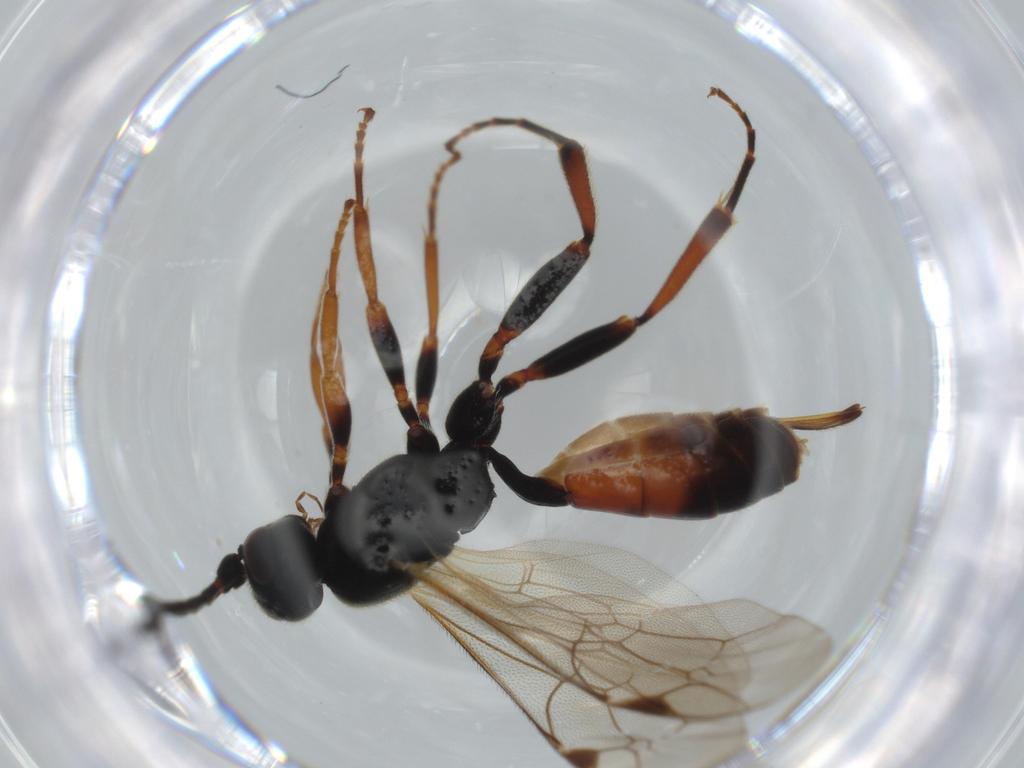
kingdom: Animalia
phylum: Arthropoda
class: Insecta
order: Hymenoptera
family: Ichneumonidae
